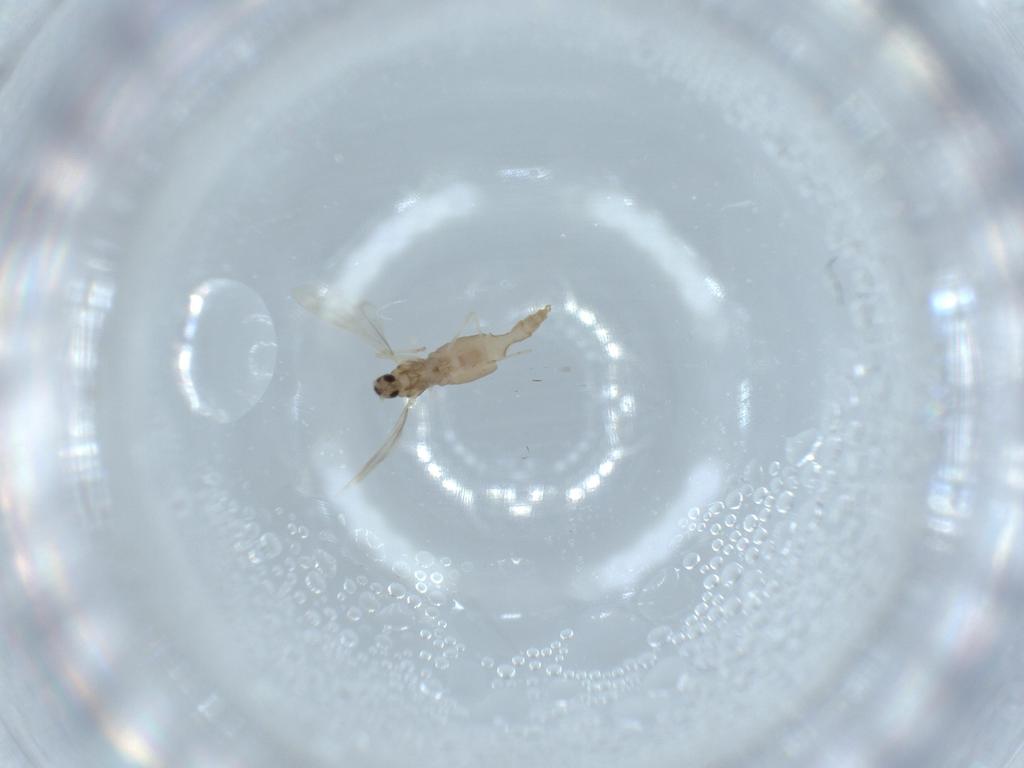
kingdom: Animalia
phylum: Arthropoda
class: Insecta
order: Diptera
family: Cecidomyiidae
